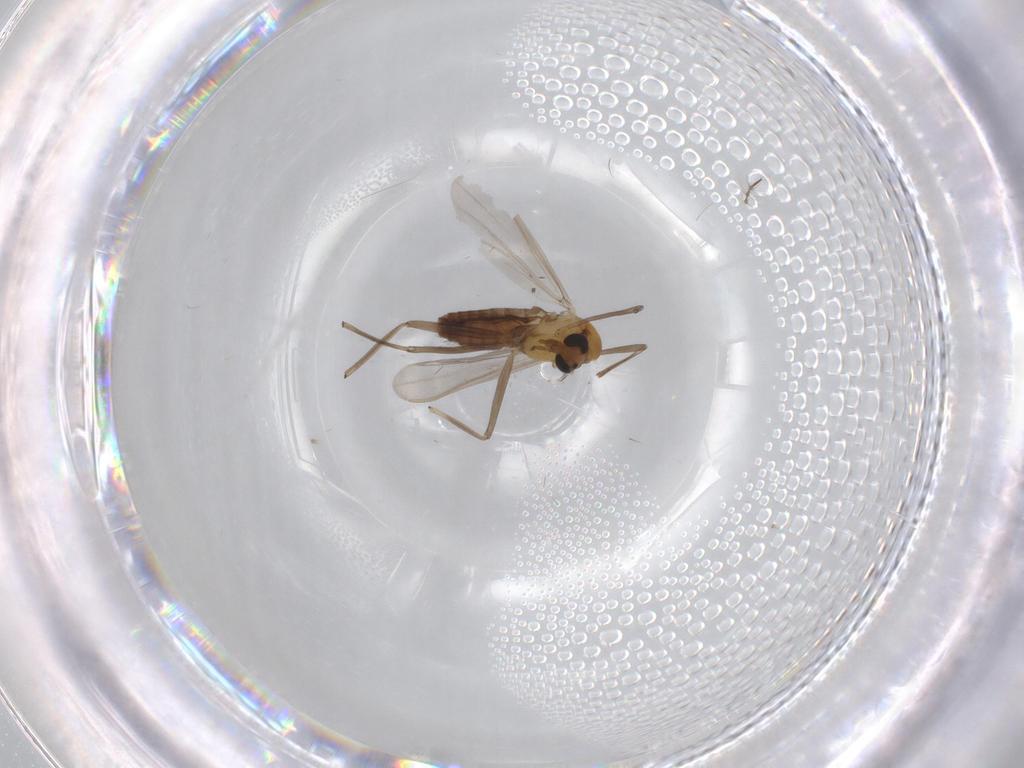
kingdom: Animalia
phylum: Arthropoda
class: Insecta
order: Diptera
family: Chironomidae
